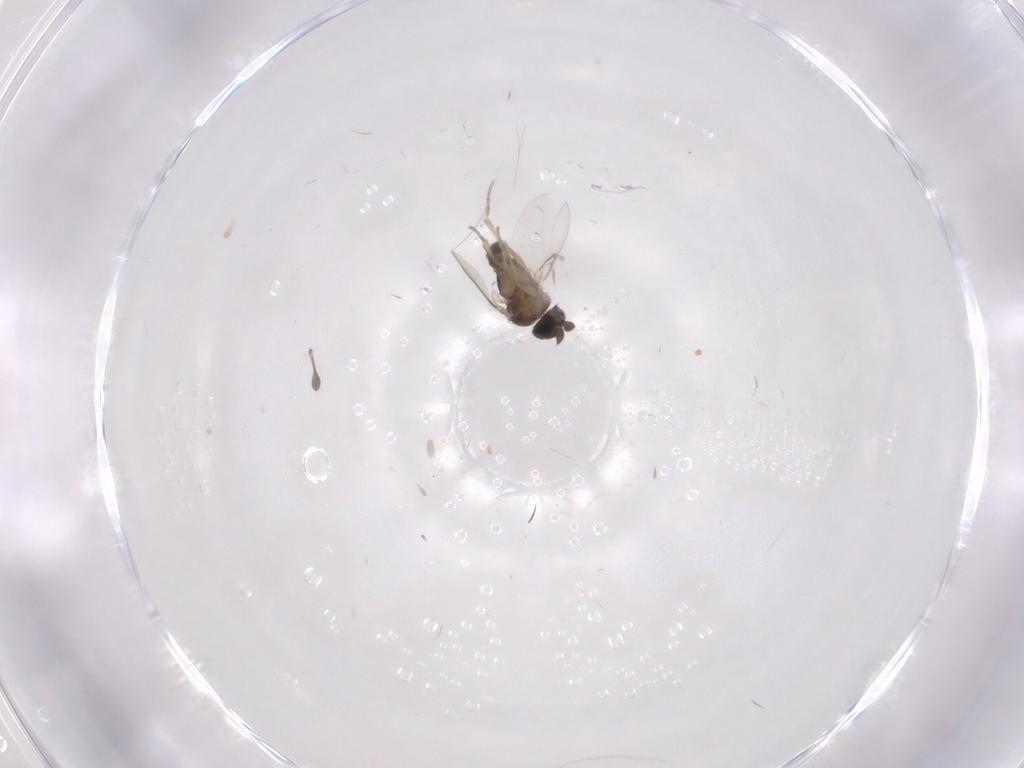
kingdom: Animalia
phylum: Arthropoda
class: Insecta
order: Diptera
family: Phoridae
